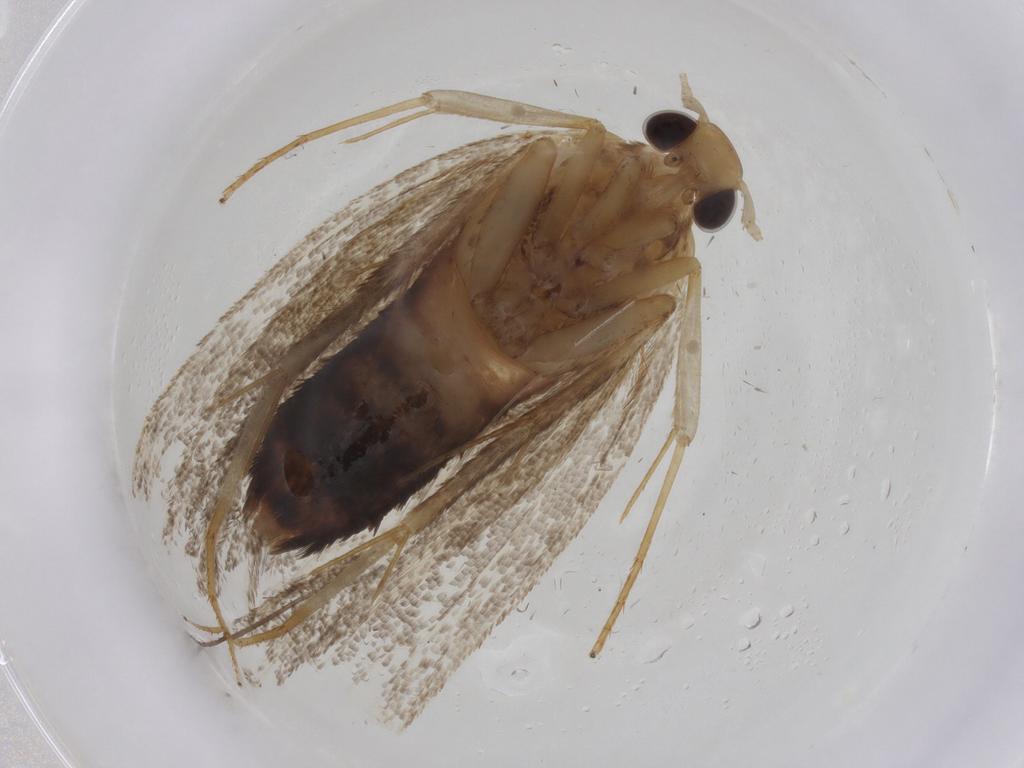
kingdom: Animalia
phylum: Arthropoda
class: Insecta
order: Lepidoptera
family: Lecithoceridae
